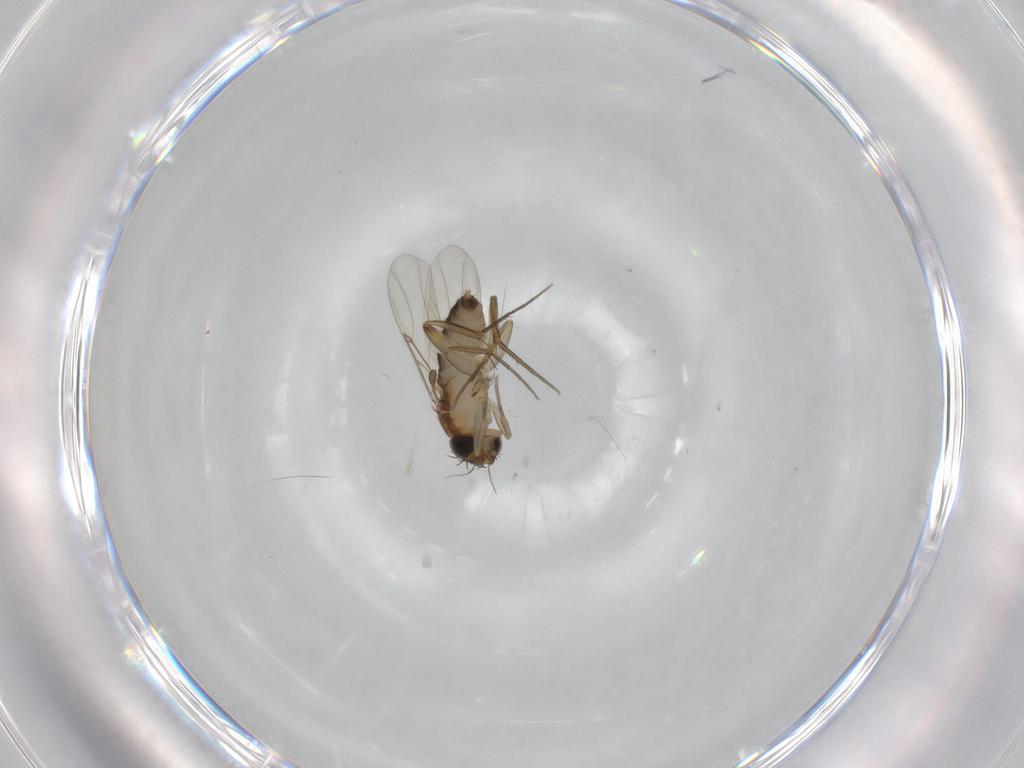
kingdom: Animalia
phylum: Arthropoda
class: Insecta
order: Diptera
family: Phoridae
